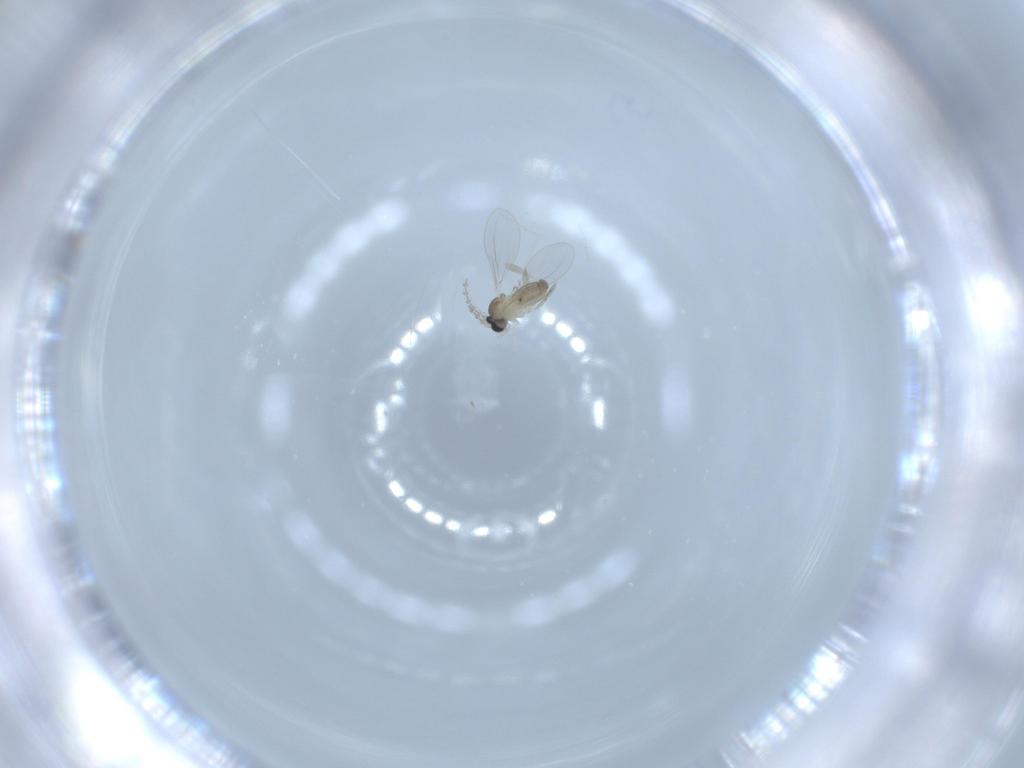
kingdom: Animalia
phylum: Arthropoda
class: Insecta
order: Diptera
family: Cecidomyiidae
